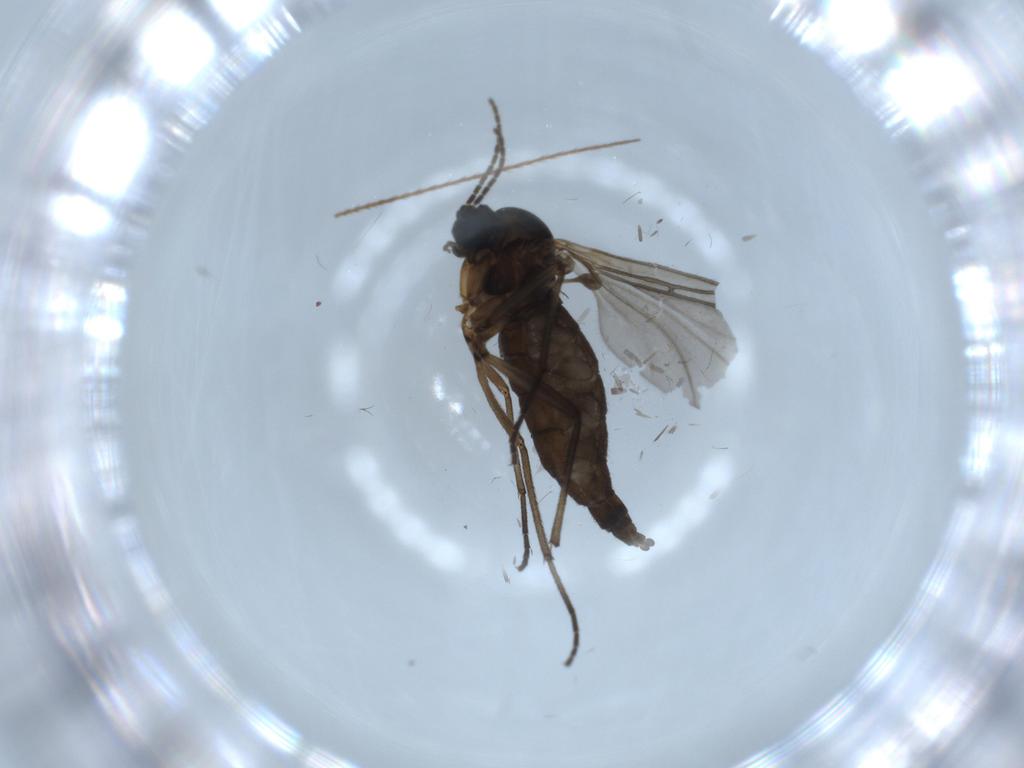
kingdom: Animalia
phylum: Arthropoda
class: Insecta
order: Diptera
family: Sciaridae
